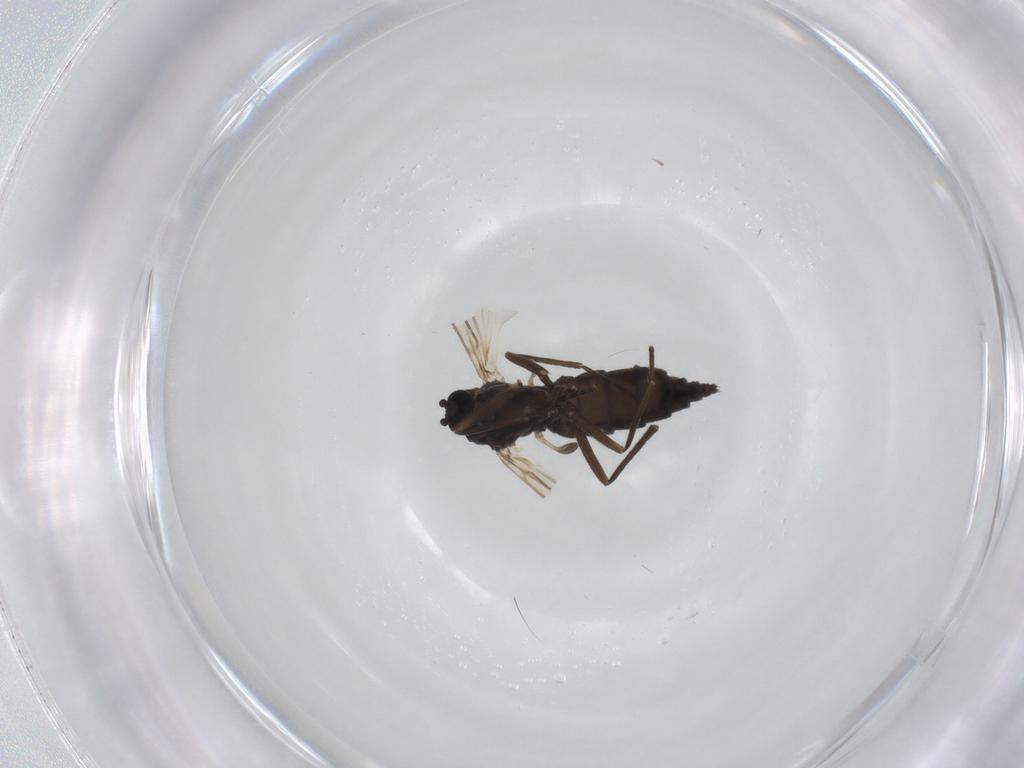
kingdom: Animalia
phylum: Arthropoda
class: Insecta
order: Diptera
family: Sciaridae
